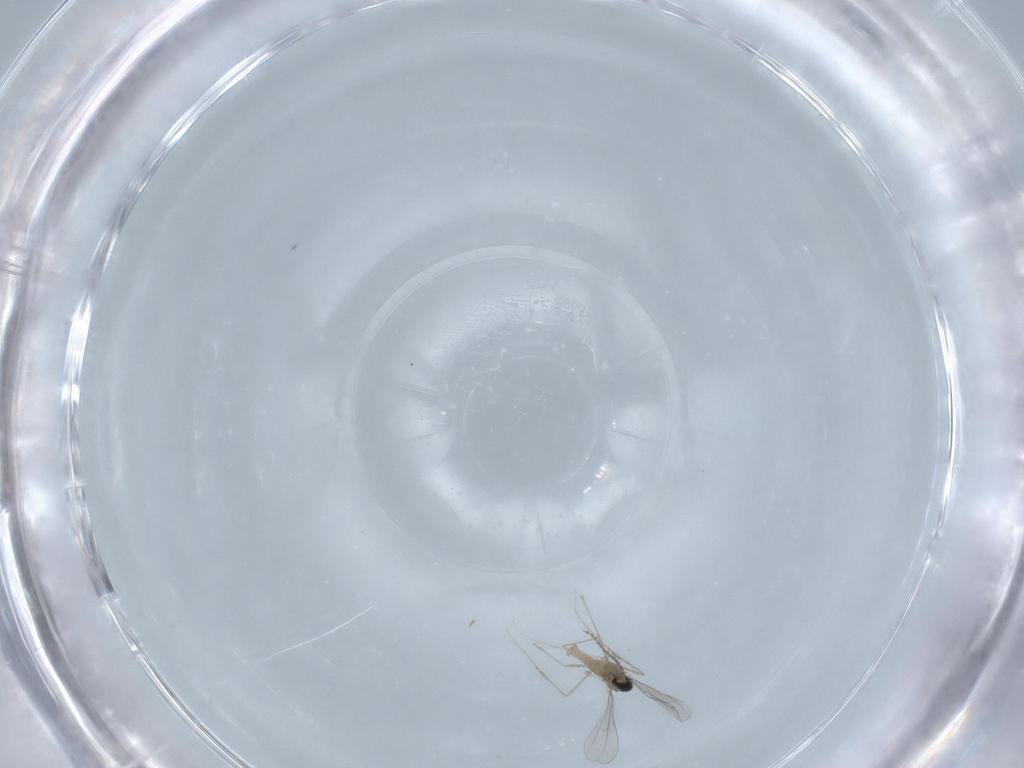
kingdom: Animalia
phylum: Arthropoda
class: Insecta
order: Diptera
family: Cecidomyiidae
